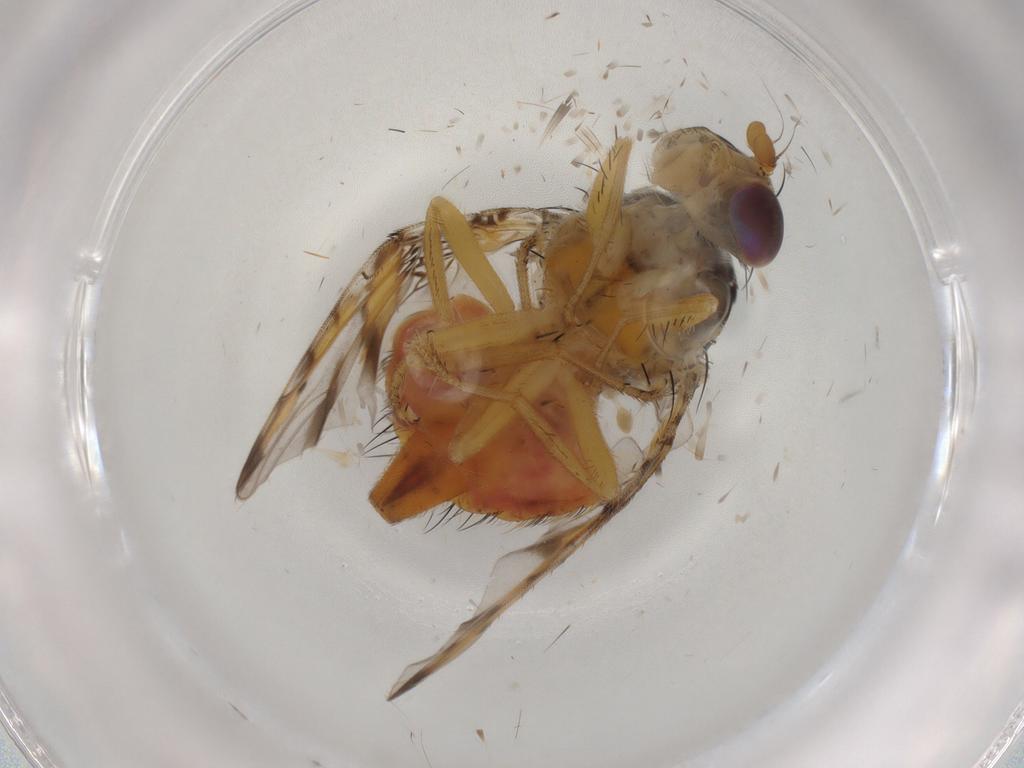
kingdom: Animalia
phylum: Arthropoda
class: Insecta
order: Diptera
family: Tephritidae
